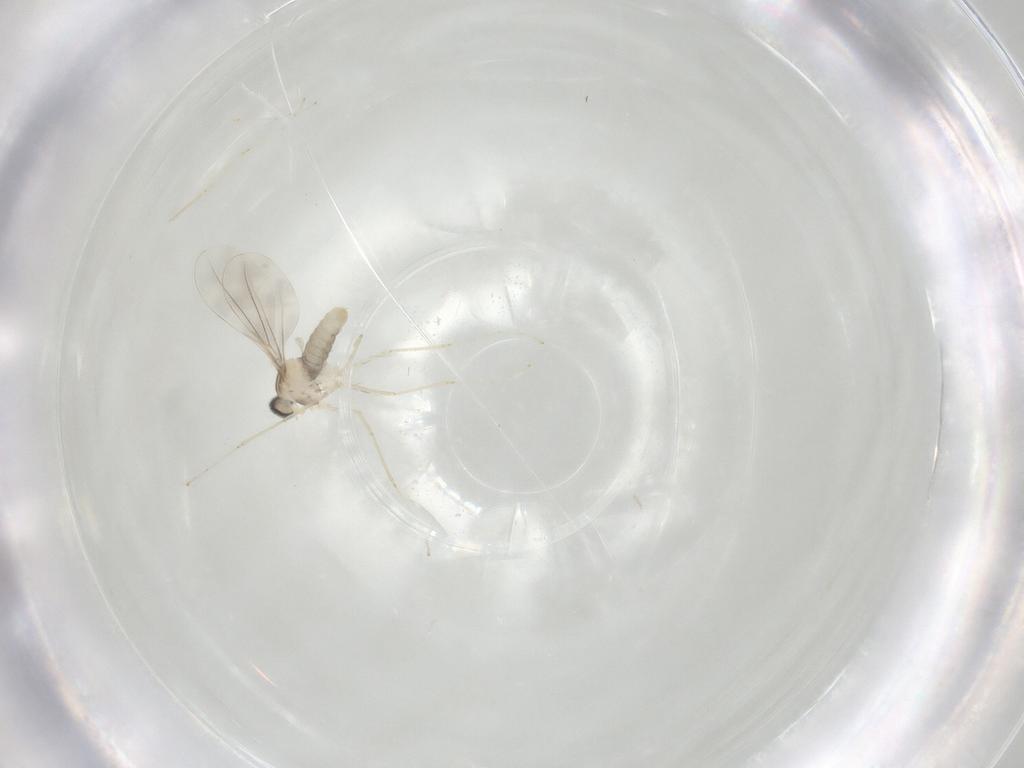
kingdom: Animalia
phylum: Arthropoda
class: Insecta
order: Diptera
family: Cecidomyiidae
